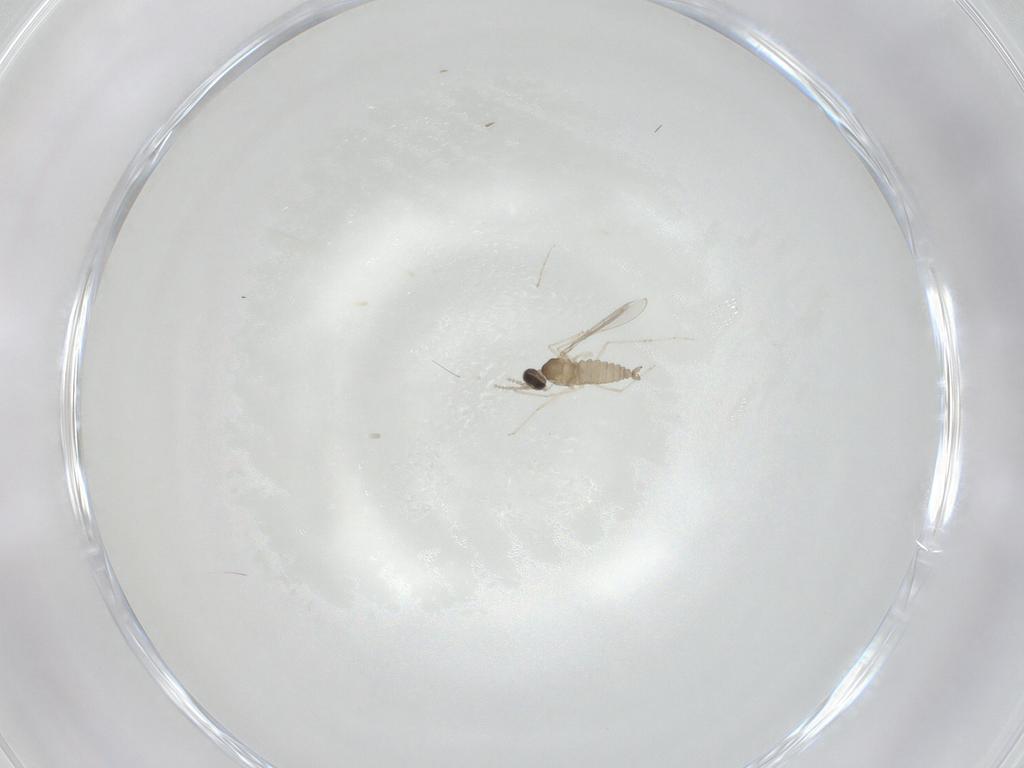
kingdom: Animalia
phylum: Arthropoda
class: Insecta
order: Diptera
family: Cecidomyiidae
